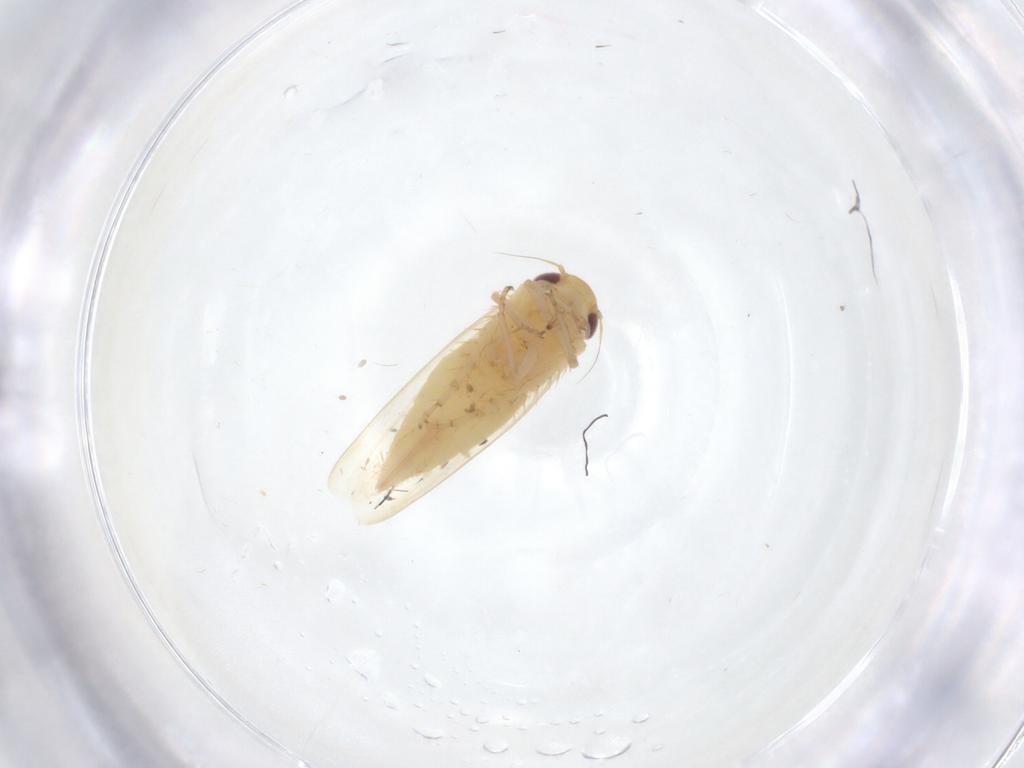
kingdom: Animalia
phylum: Arthropoda
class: Insecta
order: Hemiptera
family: Cicadellidae
